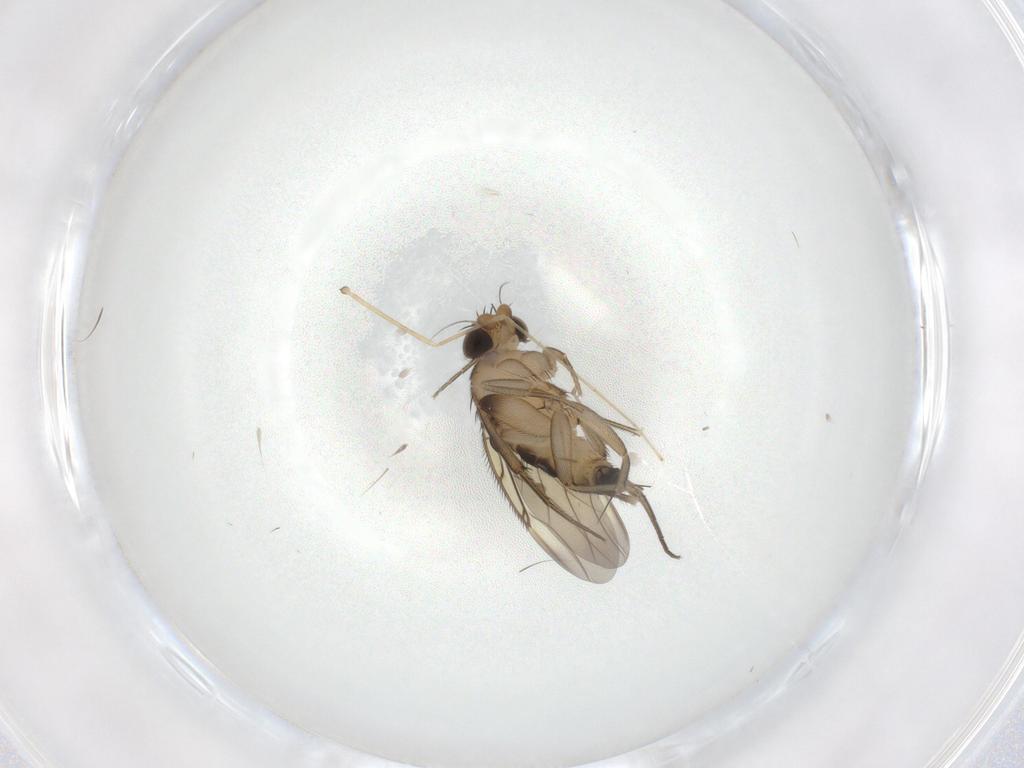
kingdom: Animalia
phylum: Arthropoda
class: Insecta
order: Diptera
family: Phoridae
